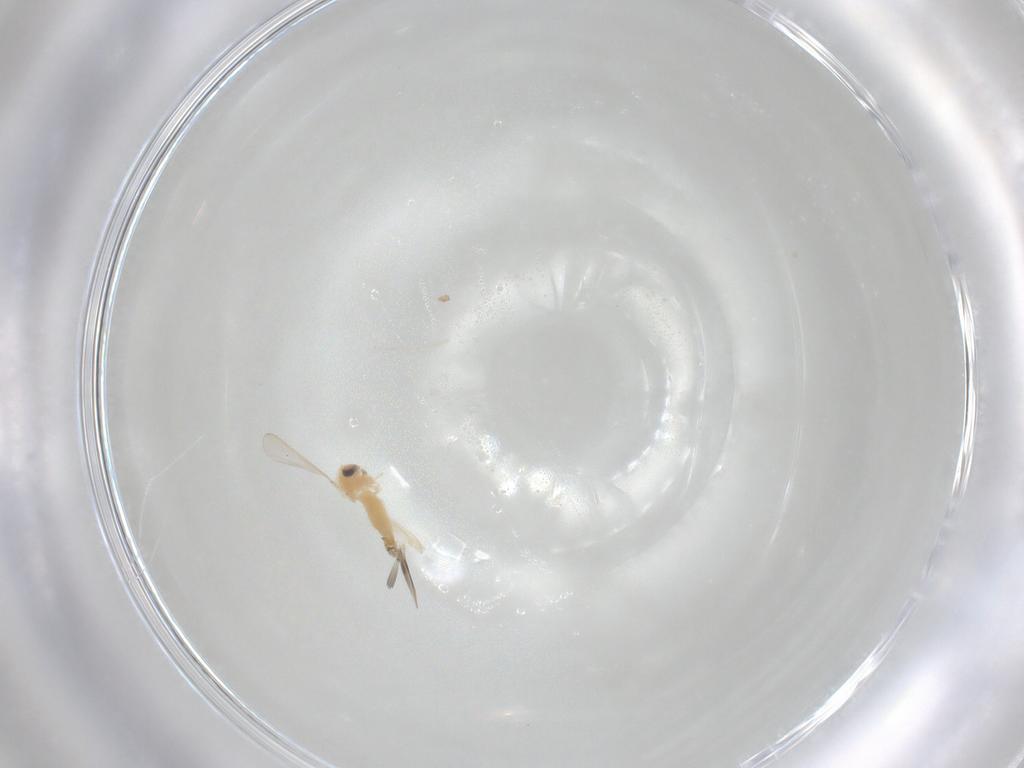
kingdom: Animalia
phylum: Arthropoda
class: Insecta
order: Diptera
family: Chironomidae
